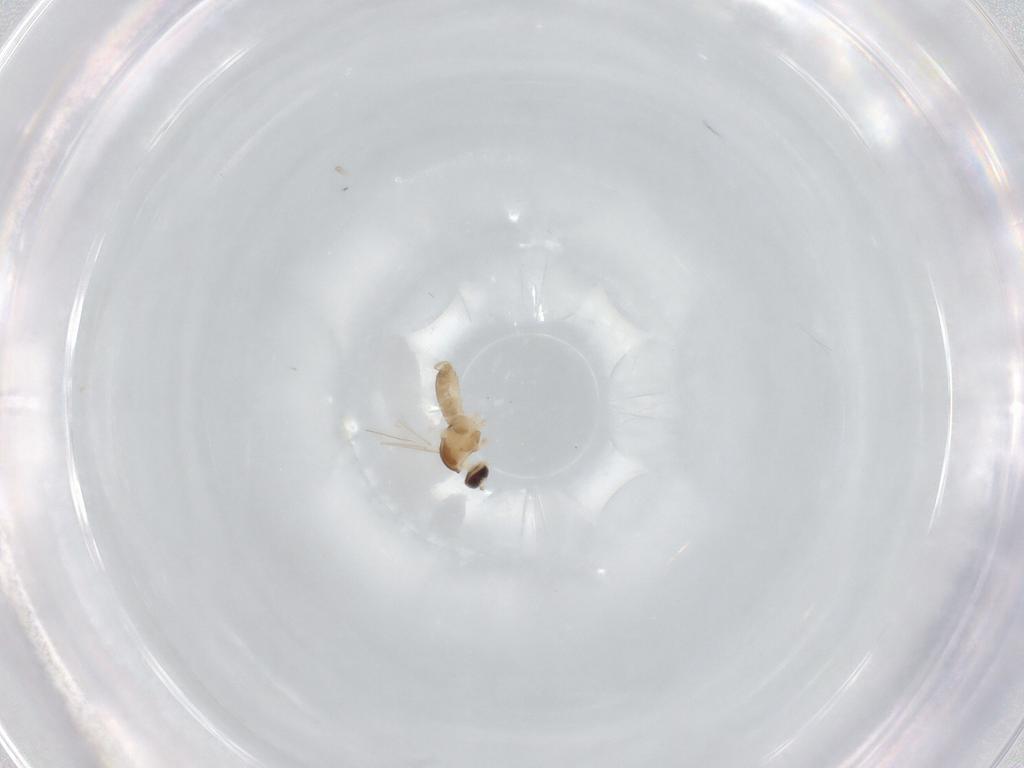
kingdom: Animalia
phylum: Arthropoda
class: Insecta
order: Diptera
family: Cecidomyiidae
